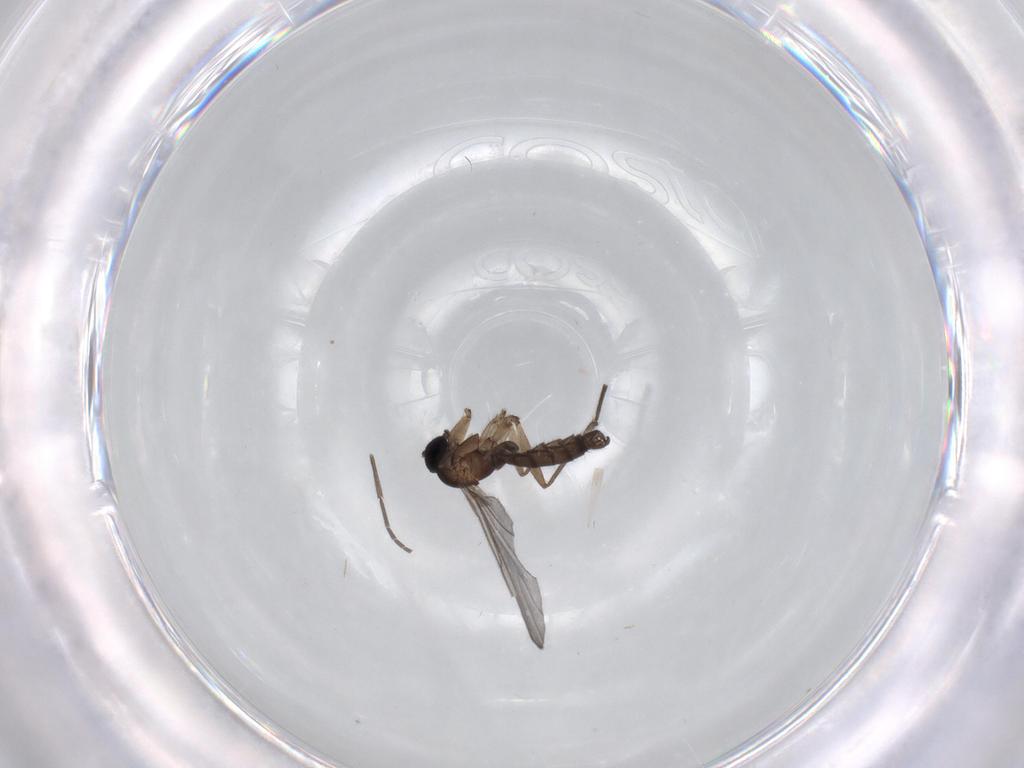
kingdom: Animalia
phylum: Arthropoda
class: Insecta
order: Diptera
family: Sciaridae
